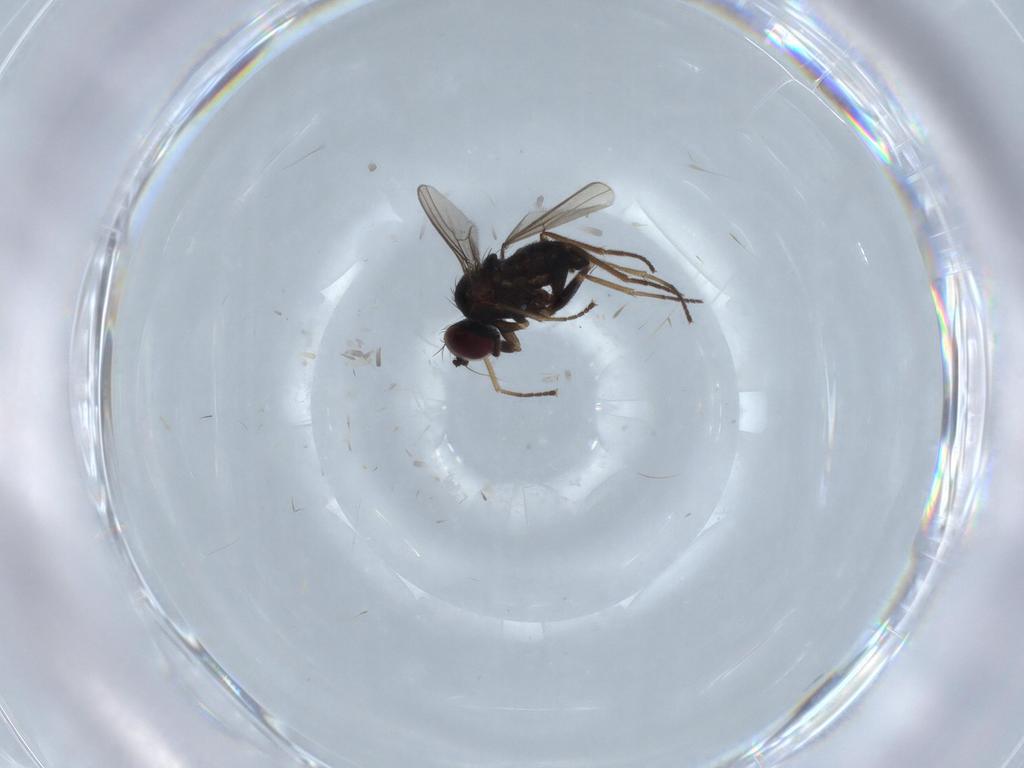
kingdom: Animalia
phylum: Arthropoda
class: Insecta
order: Diptera
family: Dolichopodidae
